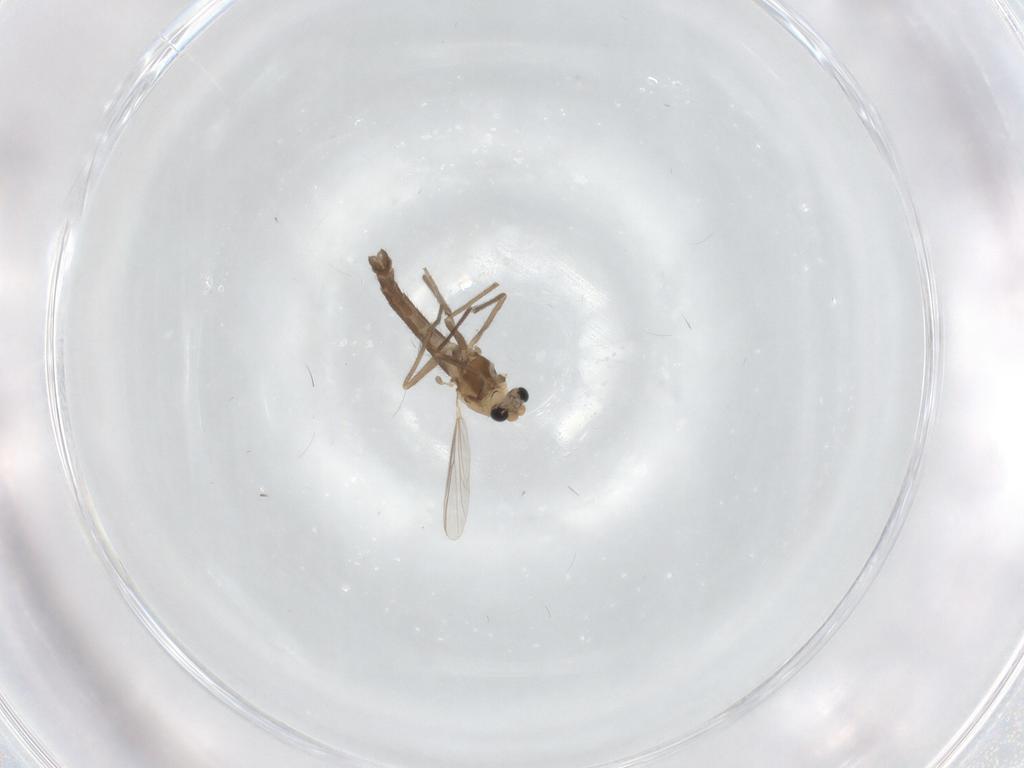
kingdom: Animalia
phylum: Arthropoda
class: Insecta
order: Diptera
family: Chironomidae
